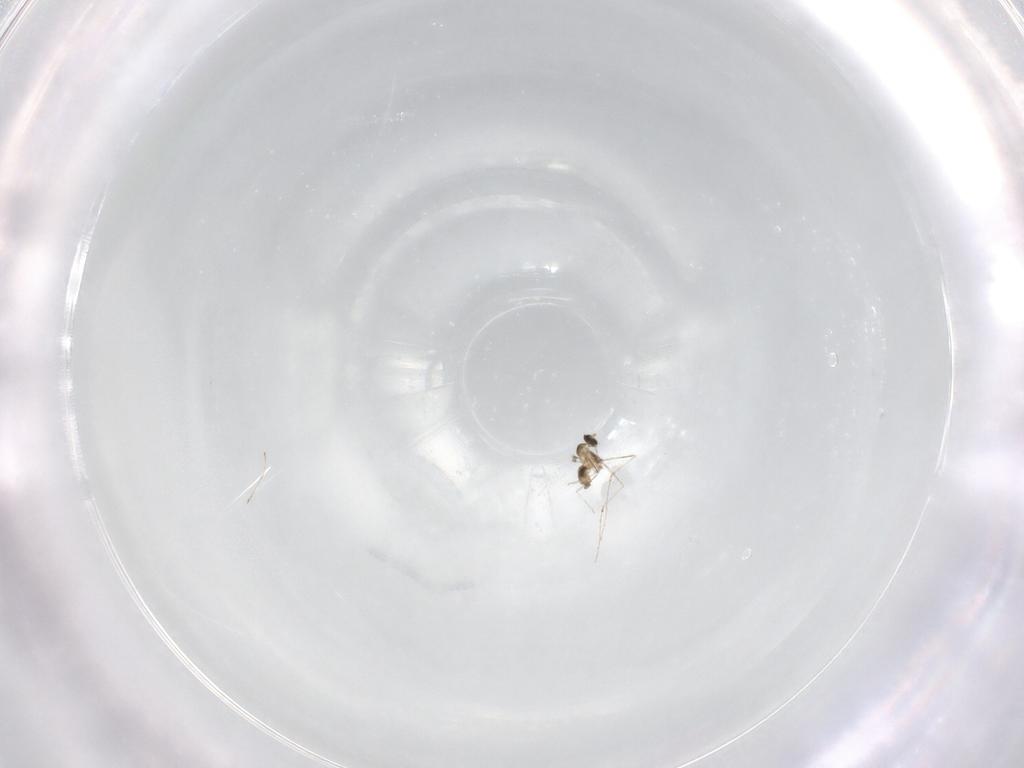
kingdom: Animalia
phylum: Arthropoda
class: Insecta
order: Diptera
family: Cecidomyiidae
